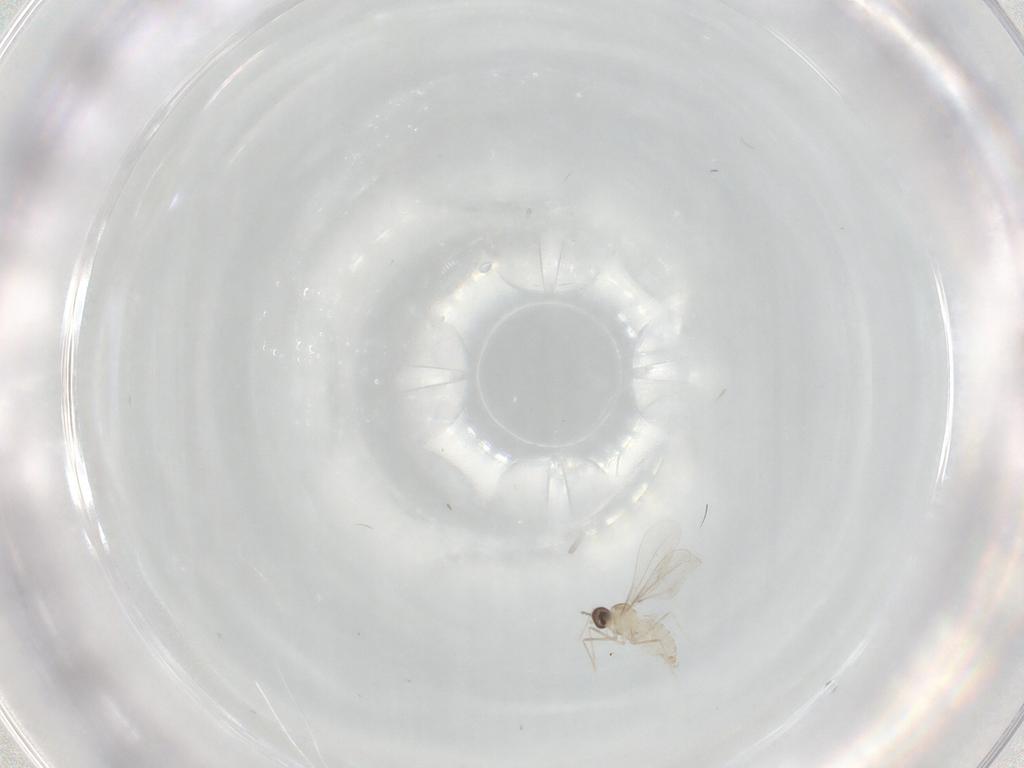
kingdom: Animalia
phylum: Arthropoda
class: Insecta
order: Diptera
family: Cecidomyiidae
